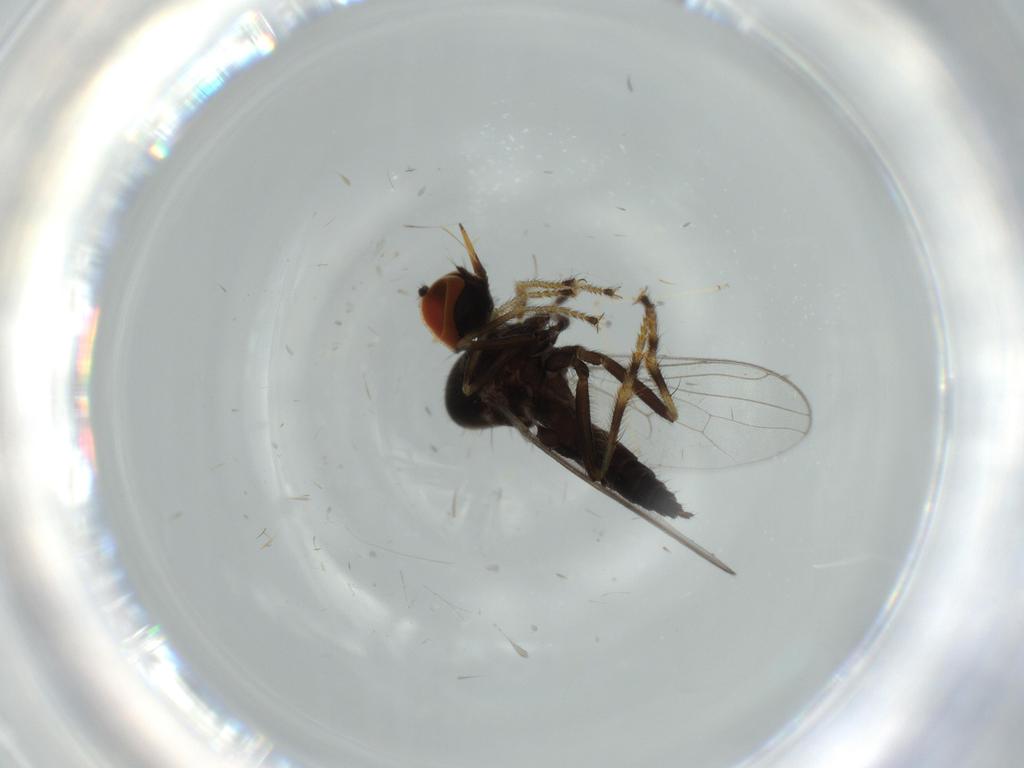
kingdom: Animalia
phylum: Arthropoda
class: Insecta
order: Diptera
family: Hybotidae
